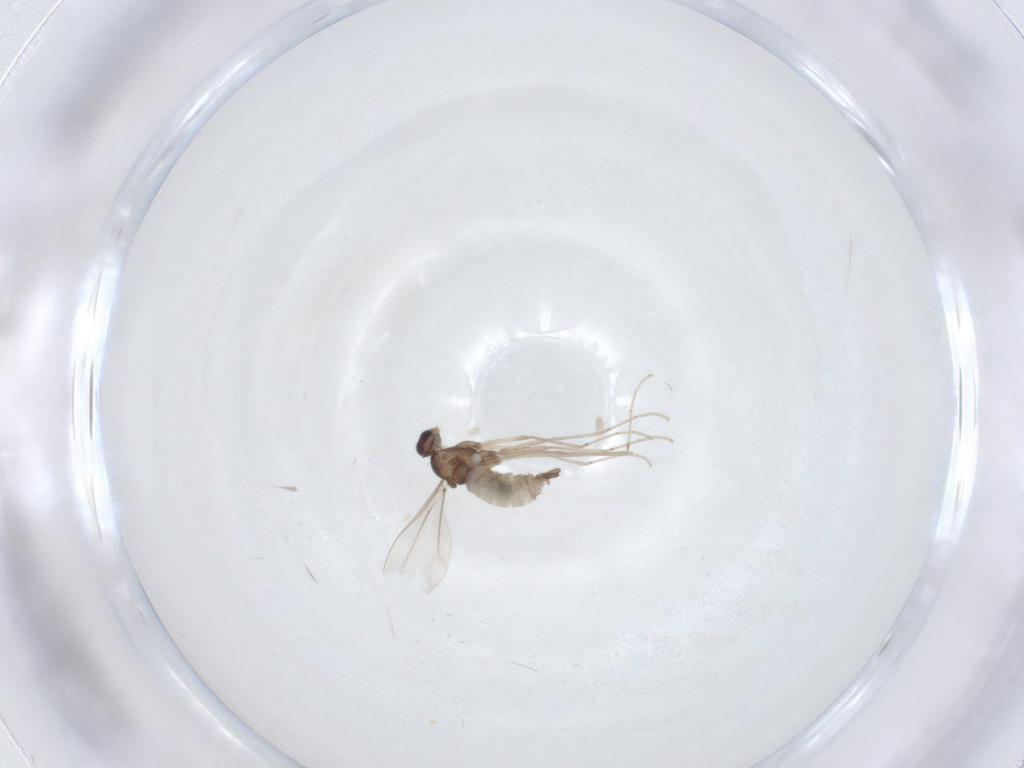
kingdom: Animalia
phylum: Arthropoda
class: Insecta
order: Diptera
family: Cecidomyiidae
